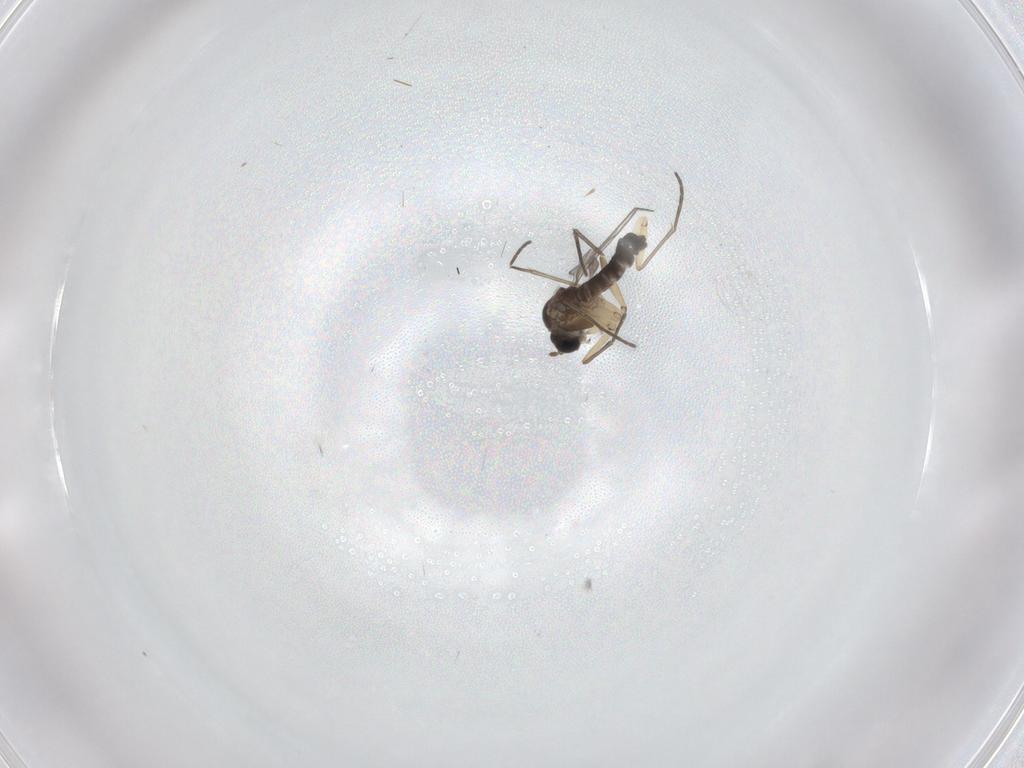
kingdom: Animalia
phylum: Arthropoda
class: Insecta
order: Diptera
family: Sciaridae
